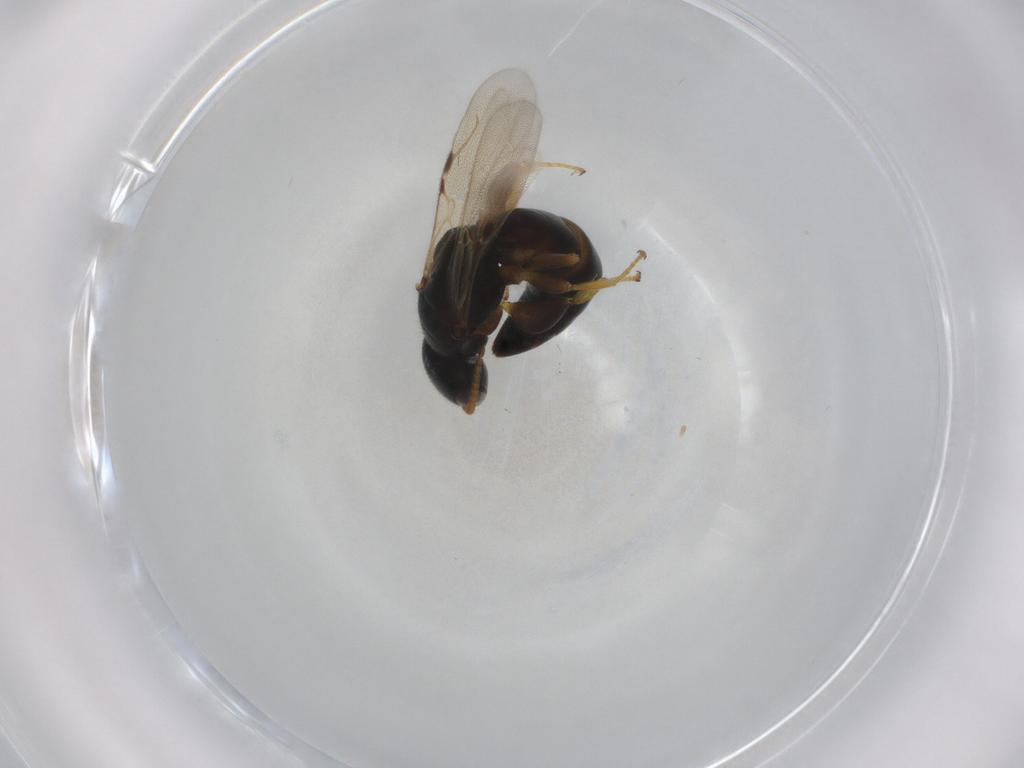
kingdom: Animalia
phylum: Arthropoda
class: Insecta
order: Hymenoptera
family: Bethylidae
